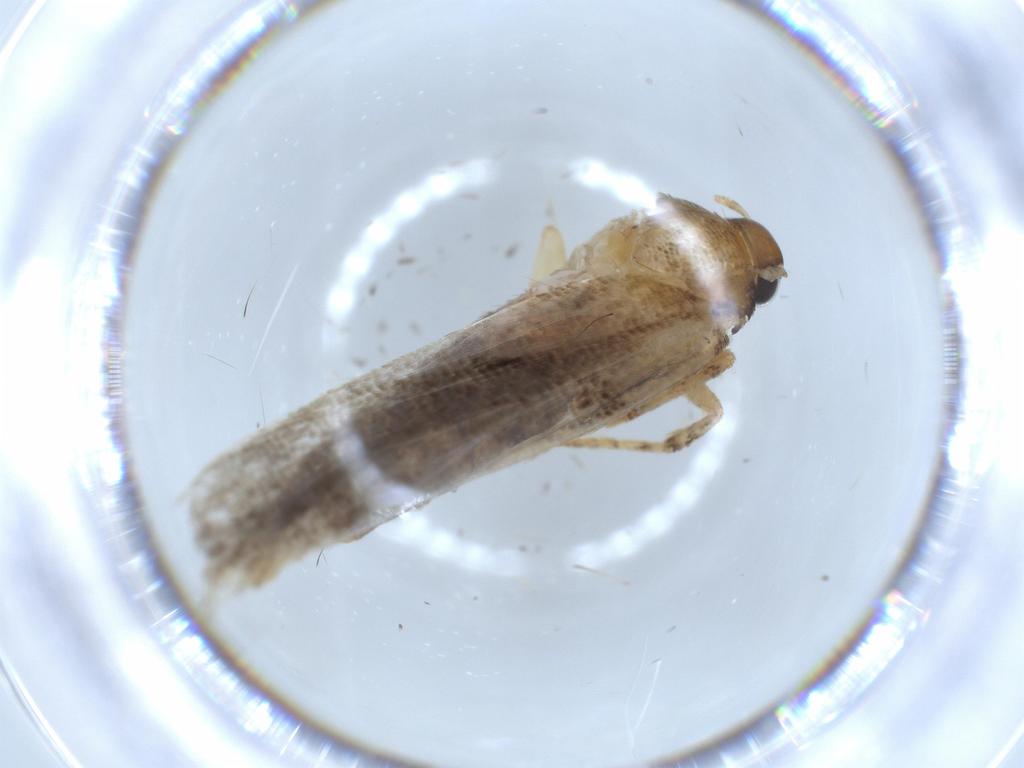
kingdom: Animalia
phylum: Arthropoda
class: Insecta
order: Lepidoptera
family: Gelechiidae
